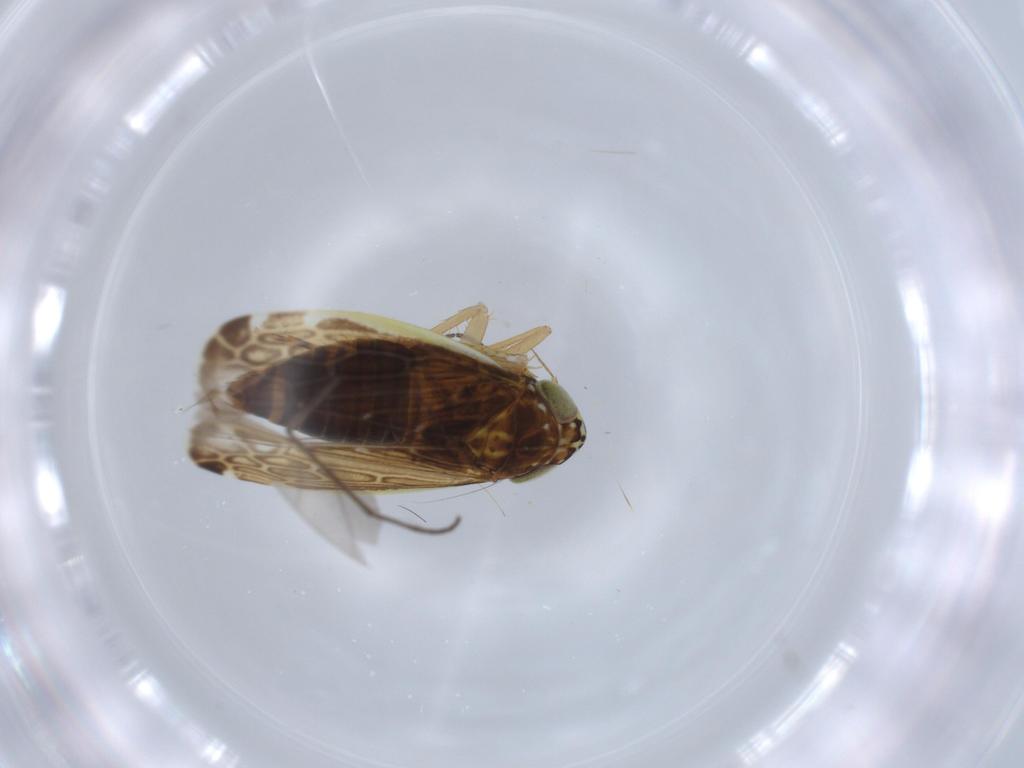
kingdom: Animalia
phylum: Arthropoda
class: Insecta
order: Hemiptera
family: Cicadellidae
